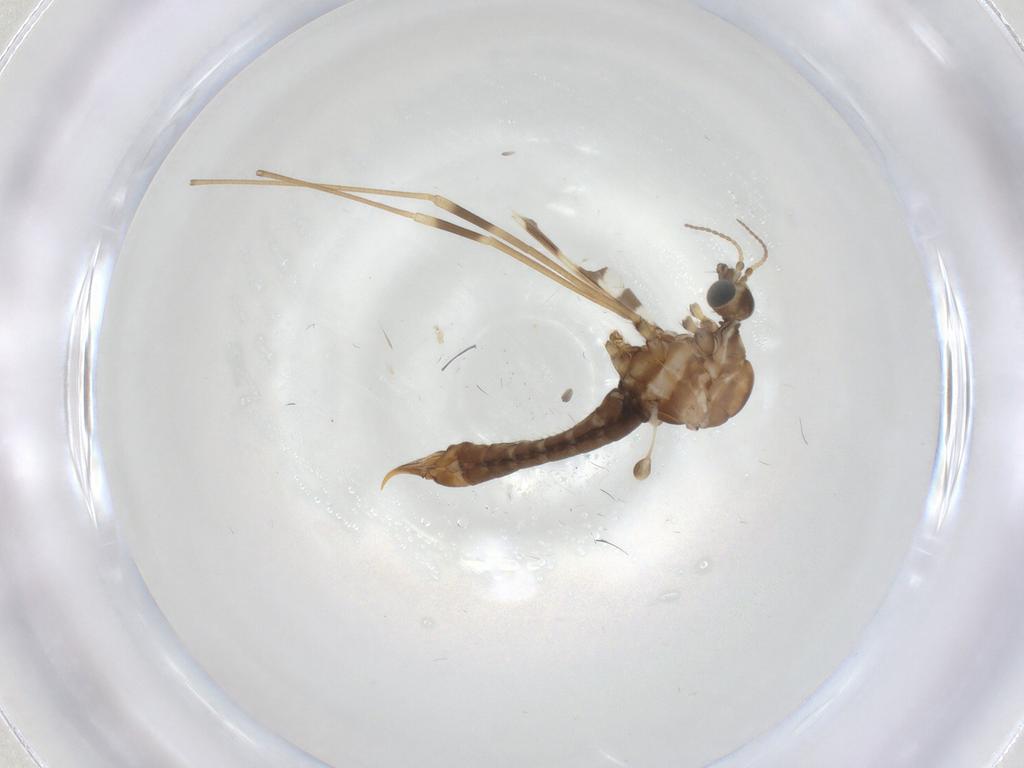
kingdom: Animalia
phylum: Arthropoda
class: Insecta
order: Diptera
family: Limoniidae
